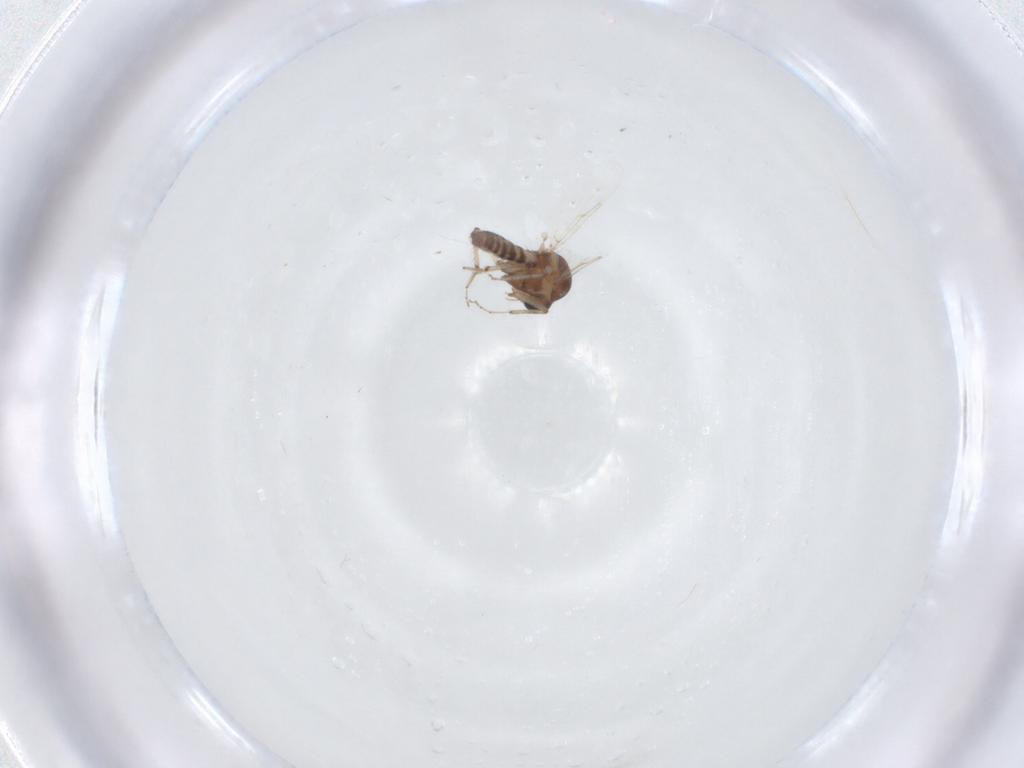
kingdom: Animalia
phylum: Arthropoda
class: Insecta
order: Diptera
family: Ceratopogonidae
